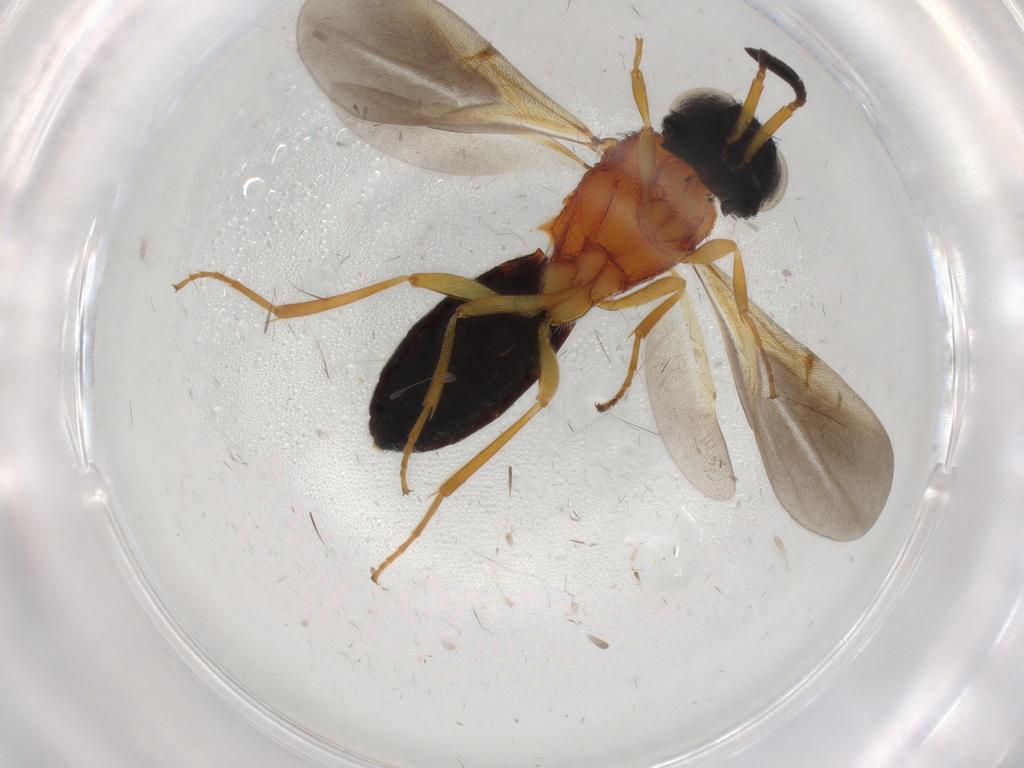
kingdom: Animalia
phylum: Arthropoda
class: Insecta
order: Hymenoptera
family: Scelionidae
